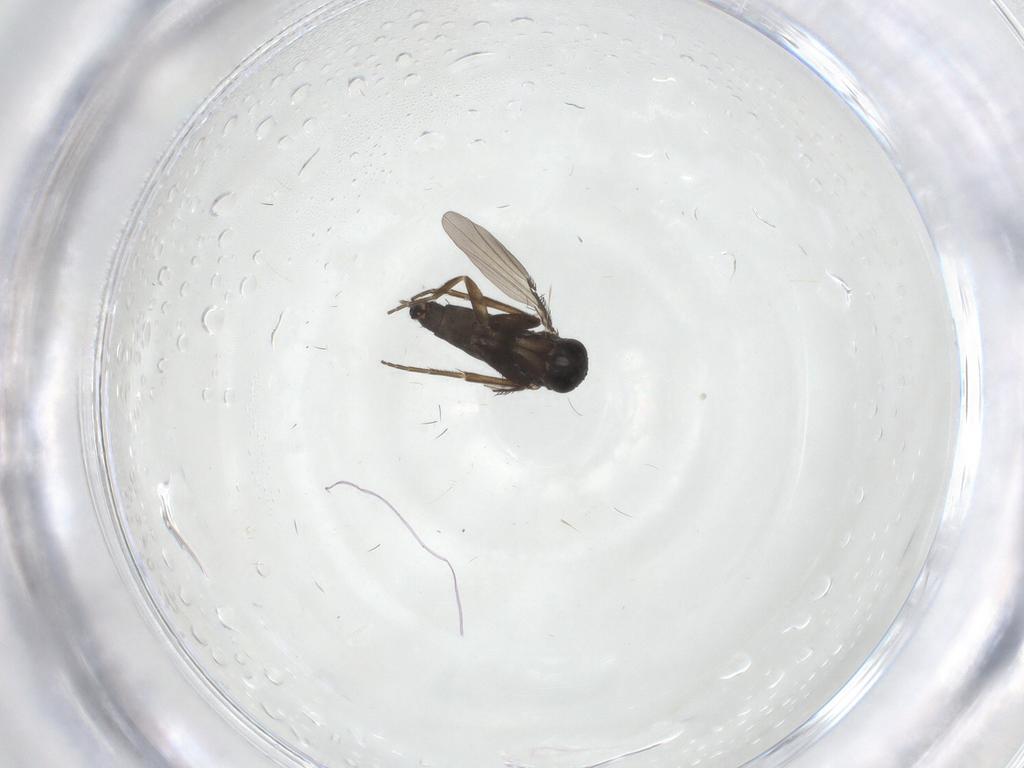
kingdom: Animalia
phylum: Arthropoda
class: Insecta
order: Diptera
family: Phoridae
